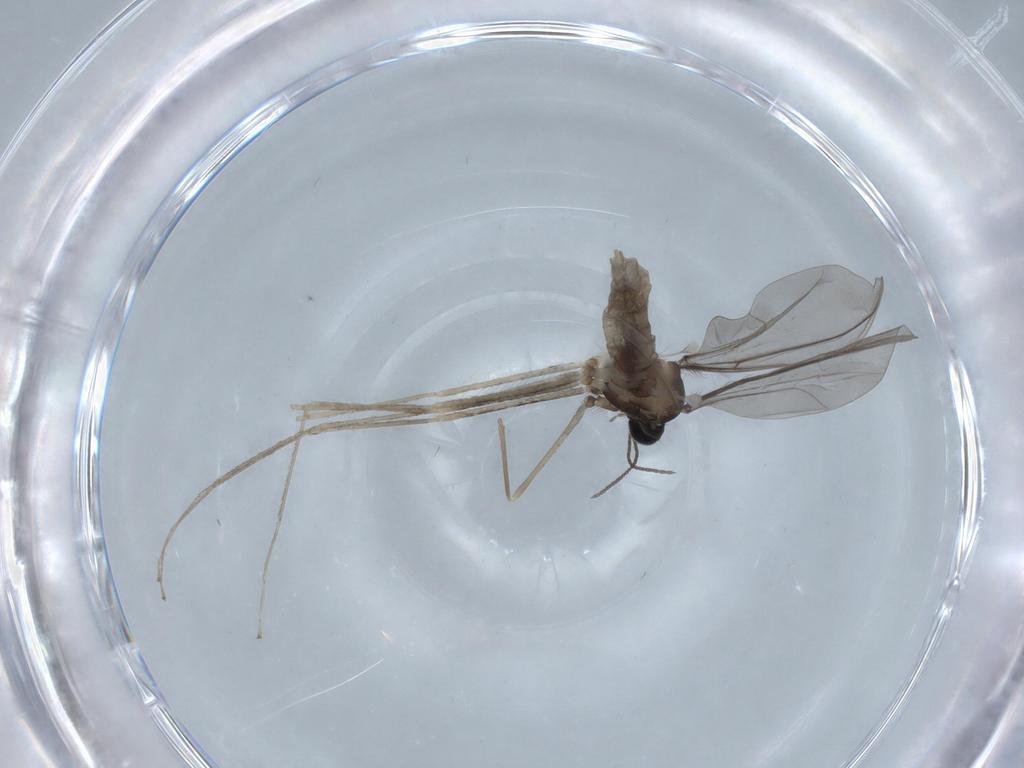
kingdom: Animalia
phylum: Arthropoda
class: Insecta
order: Diptera
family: Cecidomyiidae
